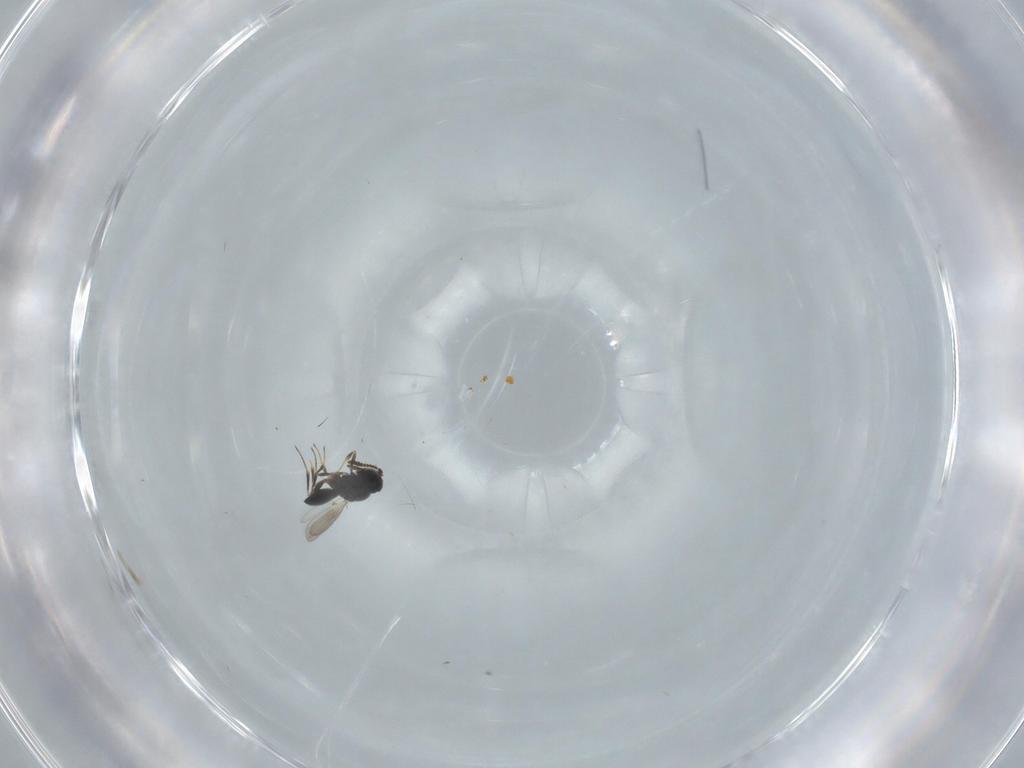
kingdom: Animalia
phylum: Arthropoda
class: Insecta
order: Hymenoptera
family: Scelionidae
